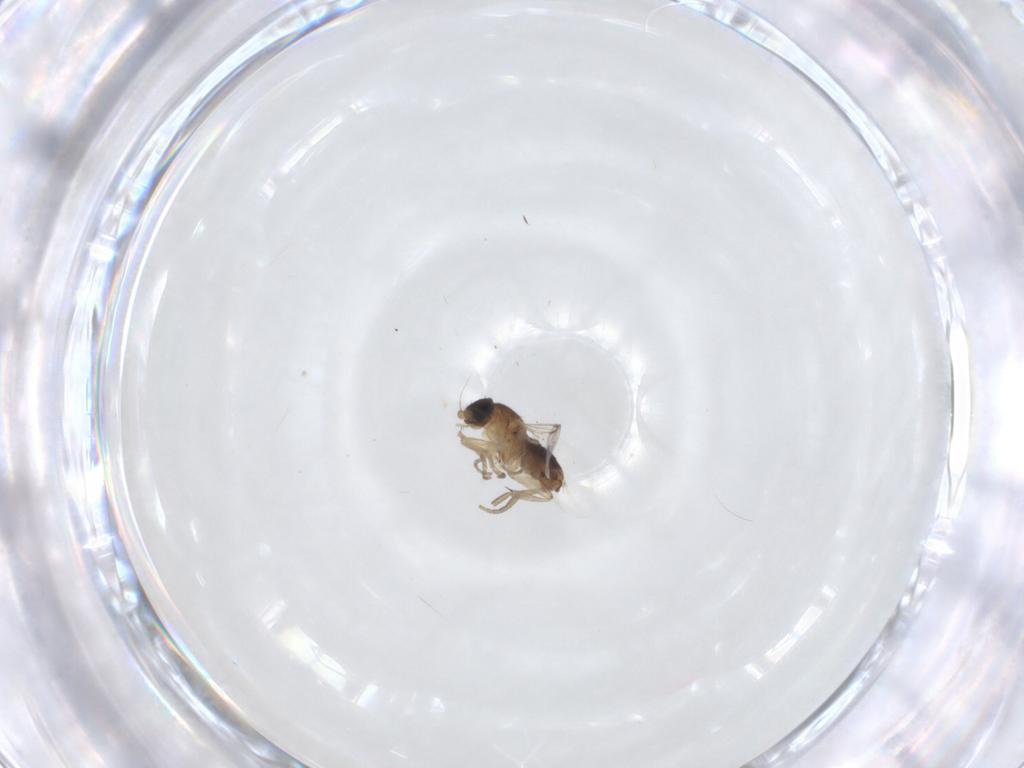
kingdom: Animalia
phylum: Arthropoda
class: Insecta
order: Diptera
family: Phoridae
